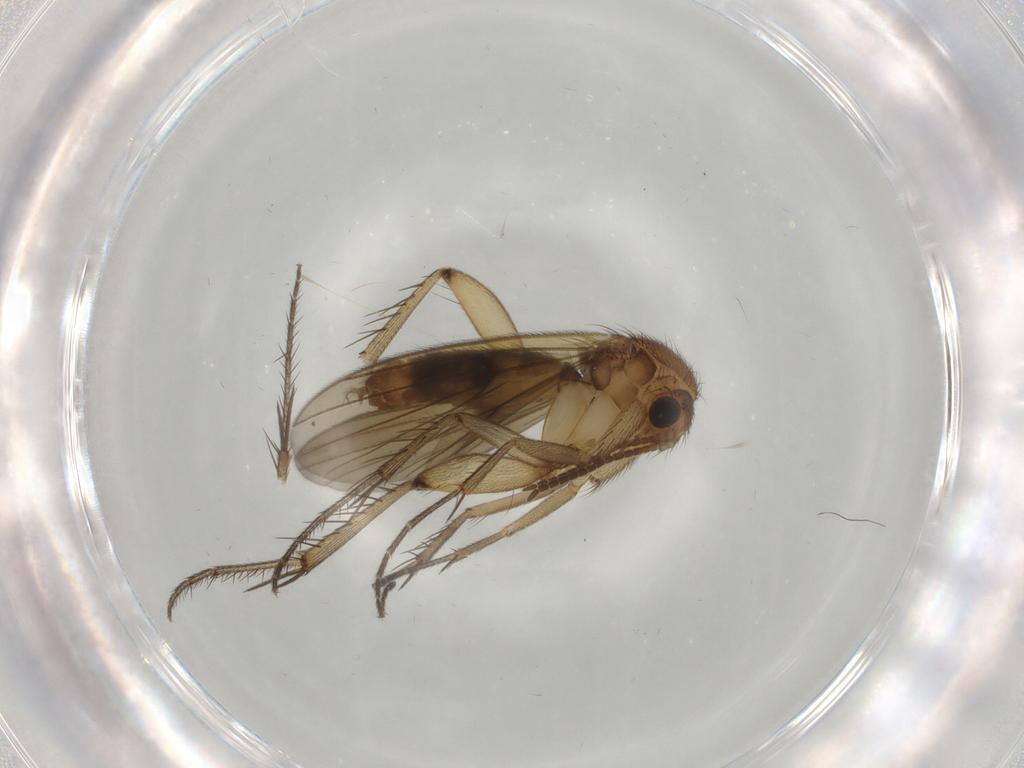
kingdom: Animalia
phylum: Arthropoda
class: Insecta
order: Diptera
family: Mycetophilidae
